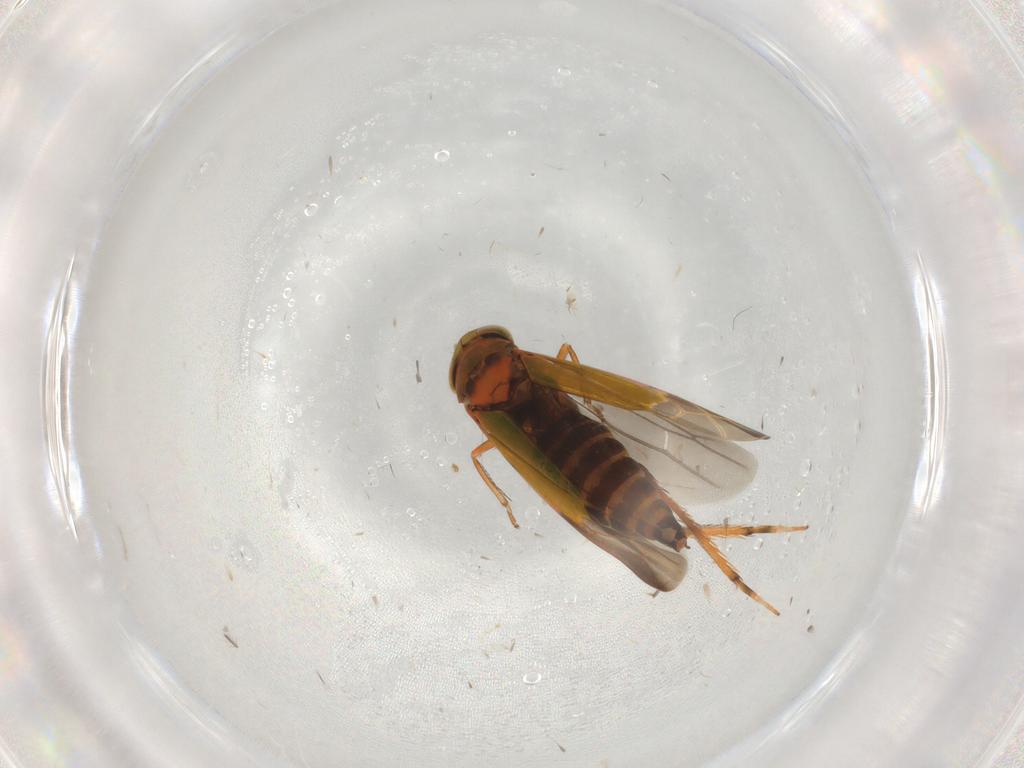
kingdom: Animalia
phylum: Arthropoda
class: Insecta
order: Hemiptera
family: Cicadellidae
